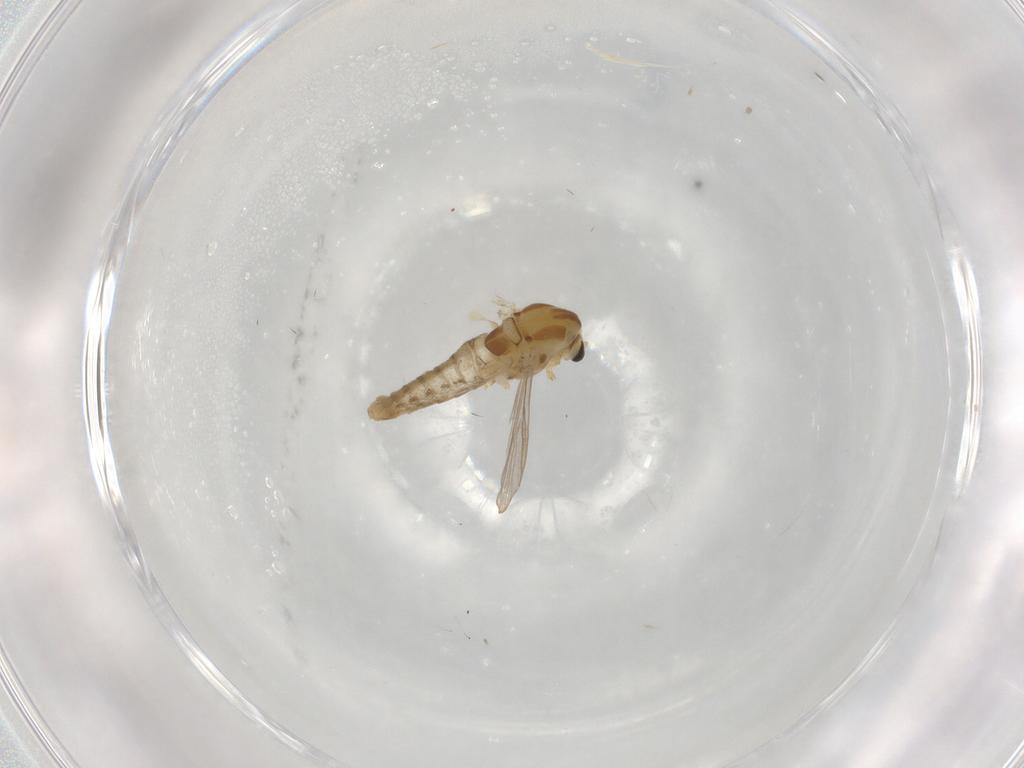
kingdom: Animalia
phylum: Arthropoda
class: Insecta
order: Diptera
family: Chironomidae
